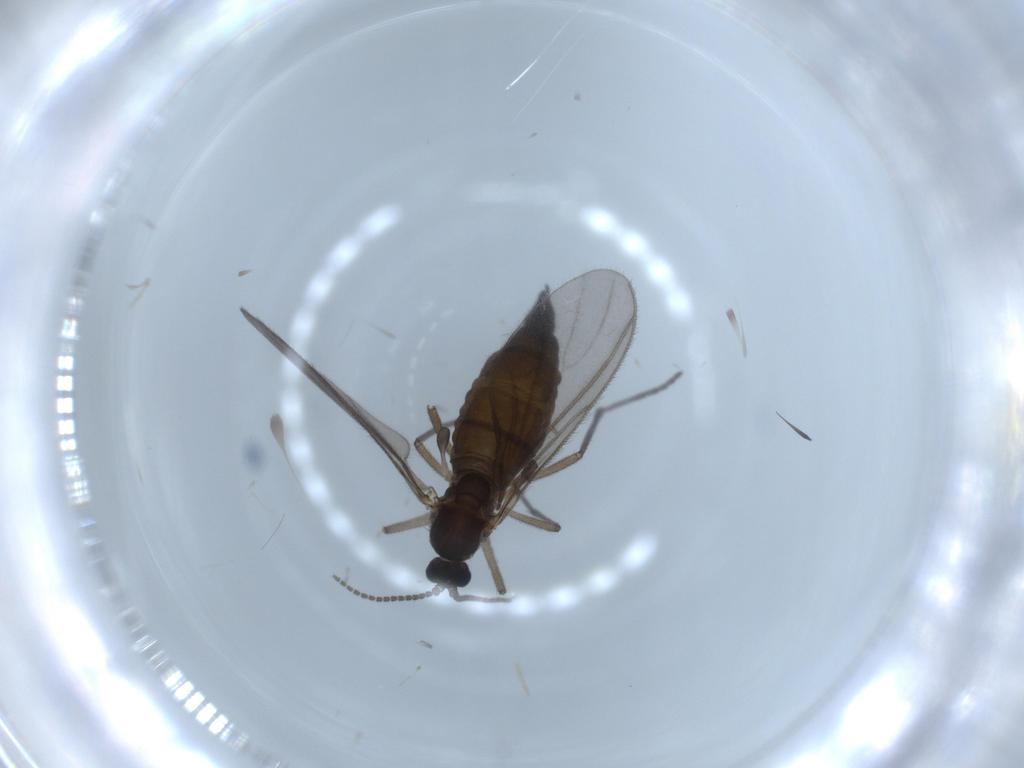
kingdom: Animalia
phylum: Arthropoda
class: Insecta
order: Diptera
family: Sciaridae
